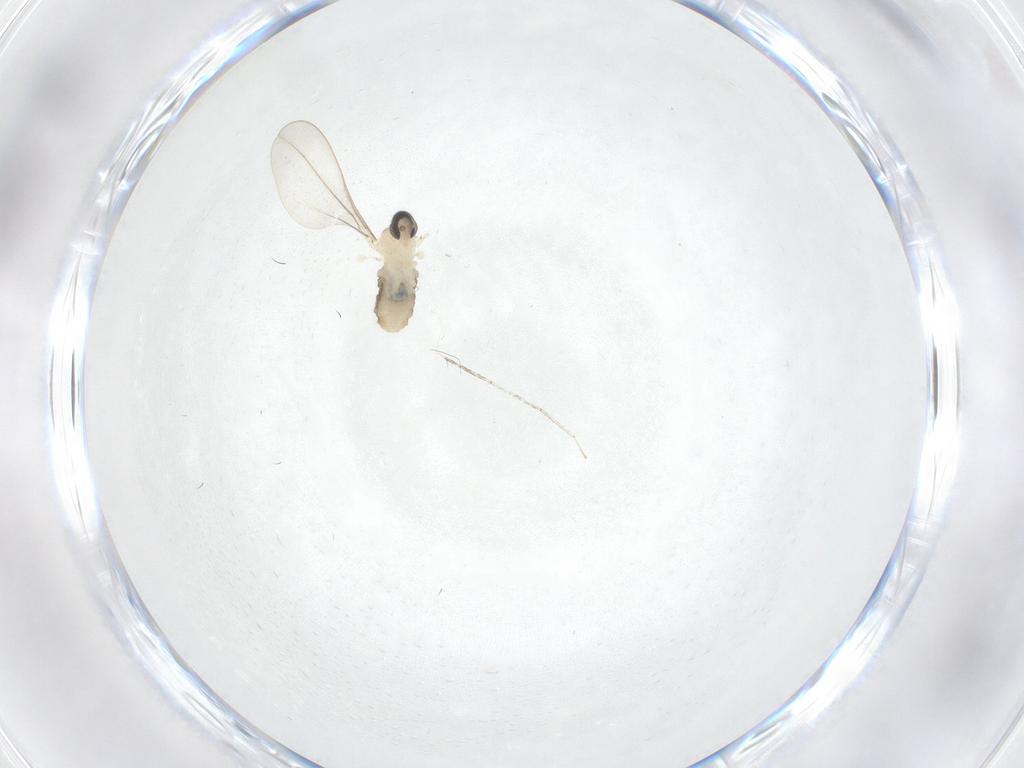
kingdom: Animalia
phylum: Arthropoda
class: Insecta
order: Diptera
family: Cecidomyiidae
